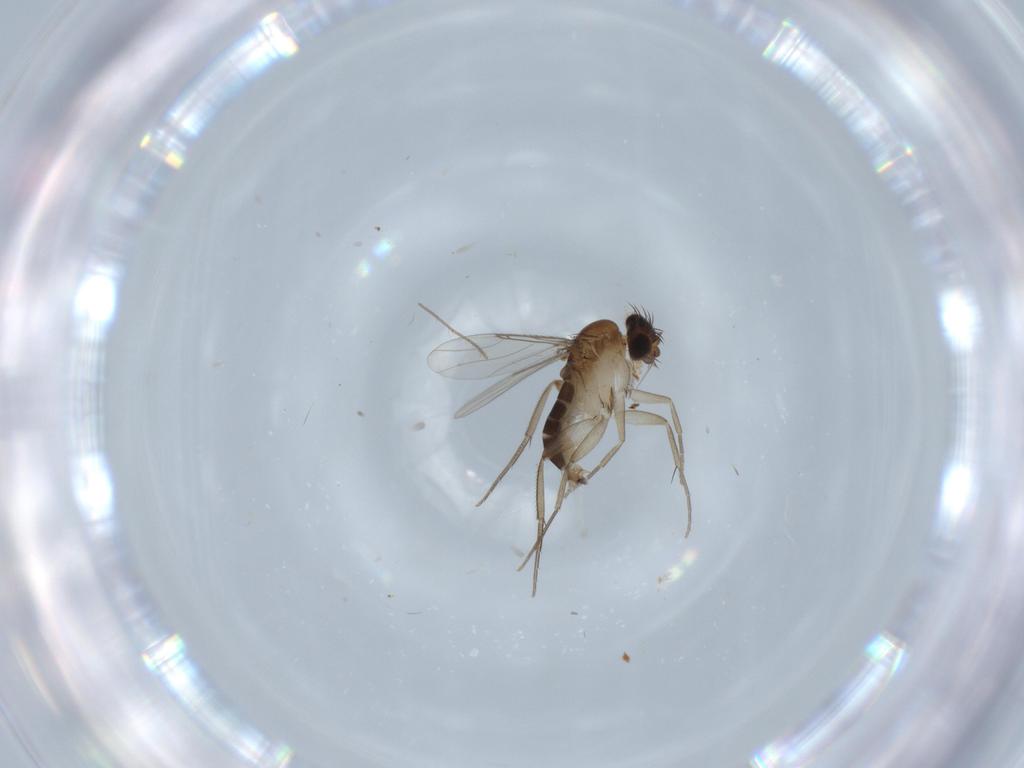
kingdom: Animalia
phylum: Arthropoda
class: Insecta
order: Diptera
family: Phoridae
